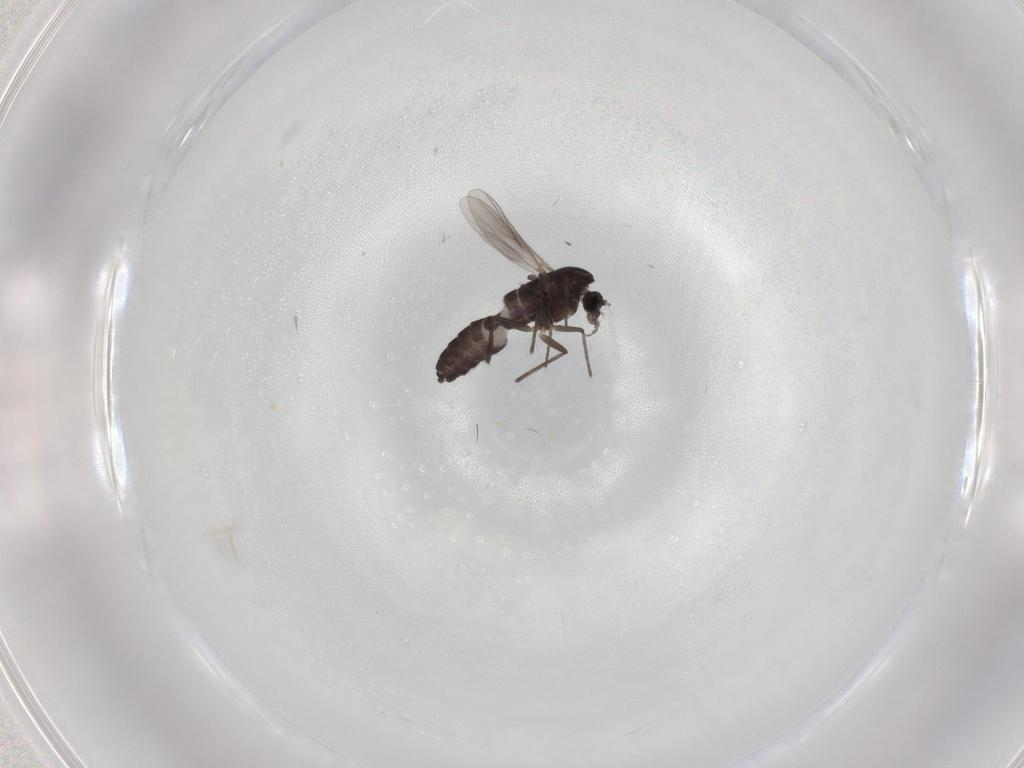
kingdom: Animalia
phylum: Arthropoda
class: Insecta
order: Diptera
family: Chironomidae
